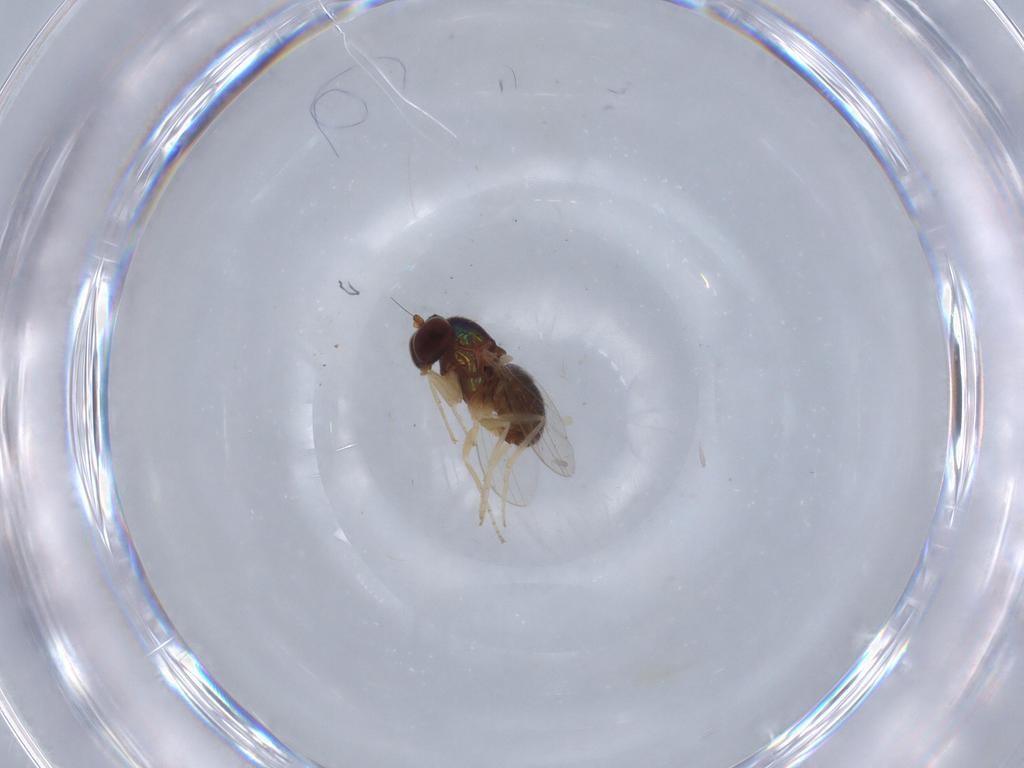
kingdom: Animalia
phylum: Arthropoda
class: Insecta
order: Diptera
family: Dolichopodidae
